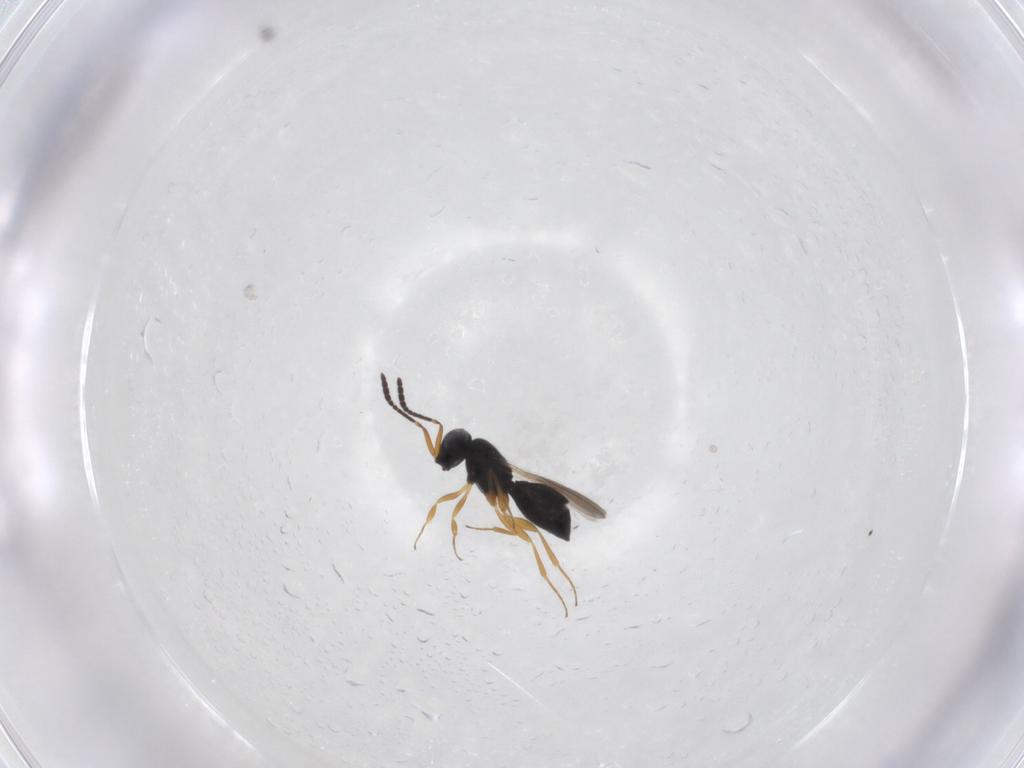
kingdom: Animalia
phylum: Arthropoda
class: Insecta
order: Hymenoptera
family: Scelionidae
